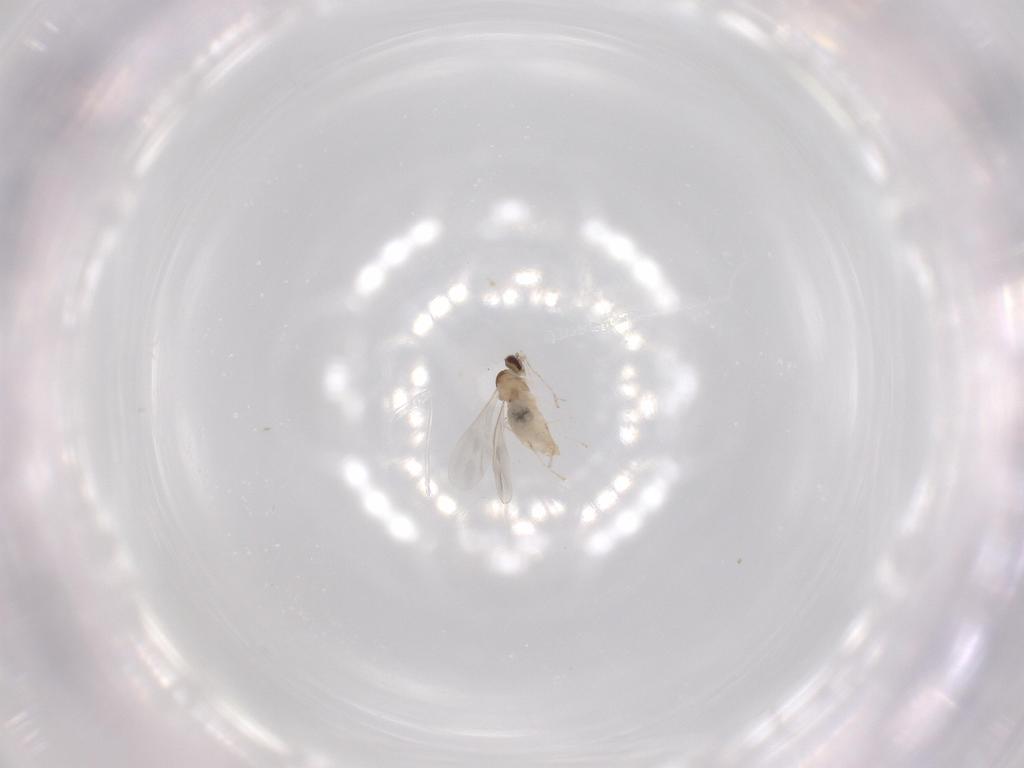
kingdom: Animalia
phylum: Arthropoda
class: Insecta
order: Diptera
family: Cecidomyiidae
